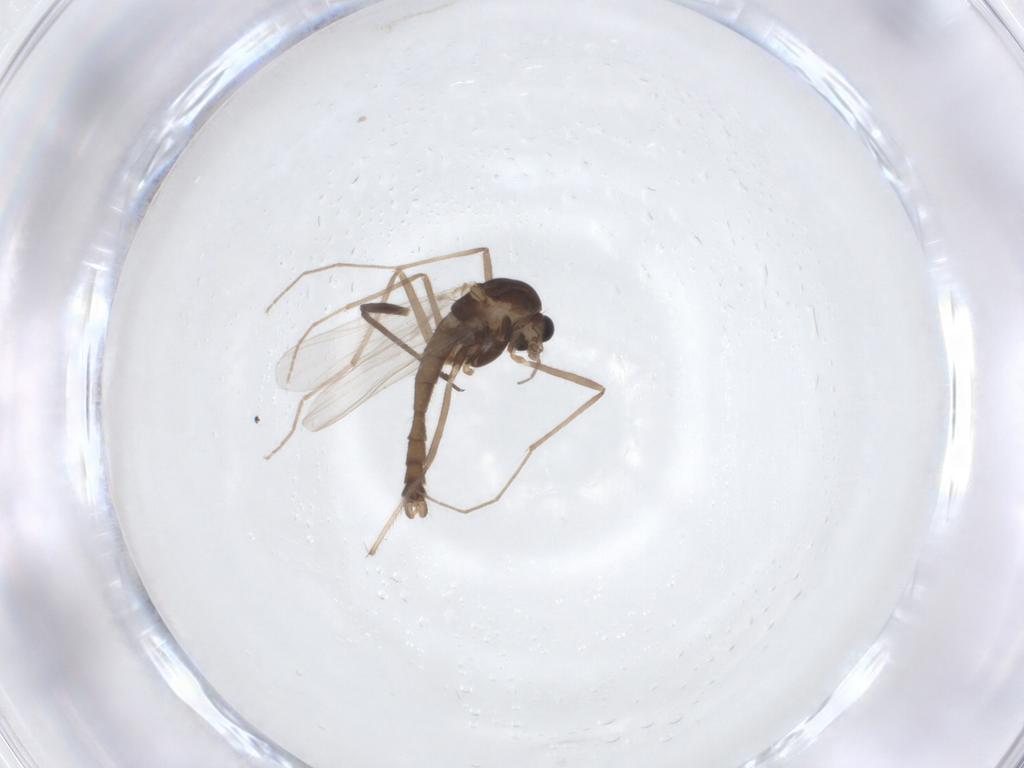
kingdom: Animalia
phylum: Arthropoda
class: Insecta
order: Diptera
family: Chironomidae
